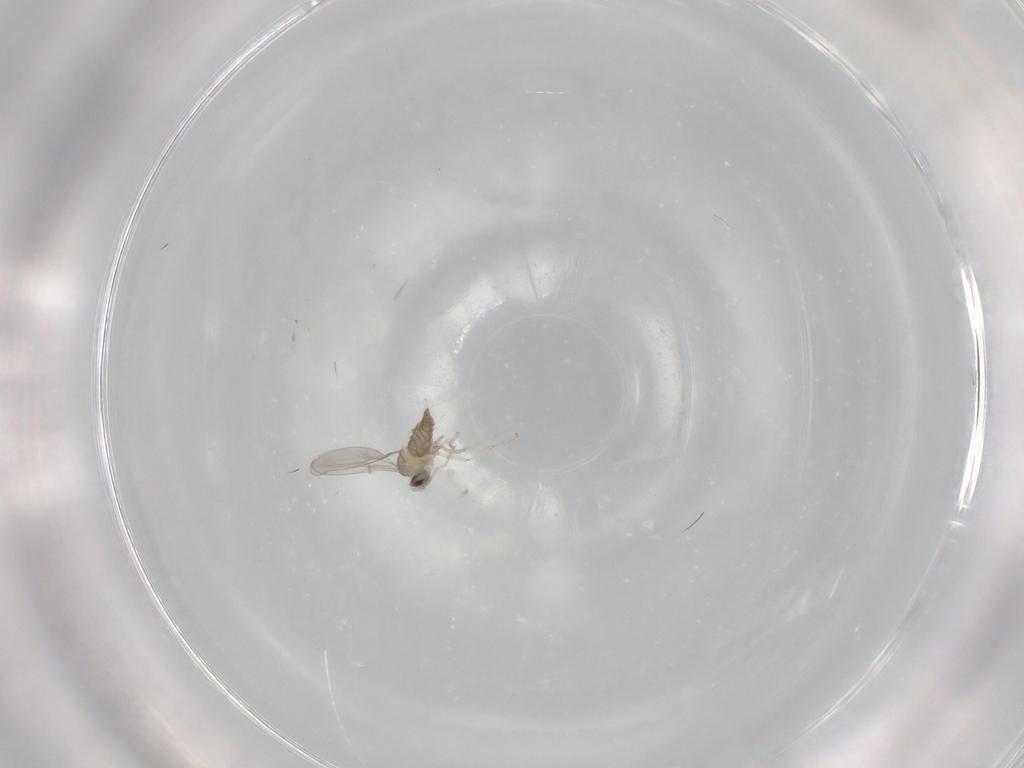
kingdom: Animalia
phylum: Arthropoda
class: Insecta
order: Diptera
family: Cecidomyiidae
